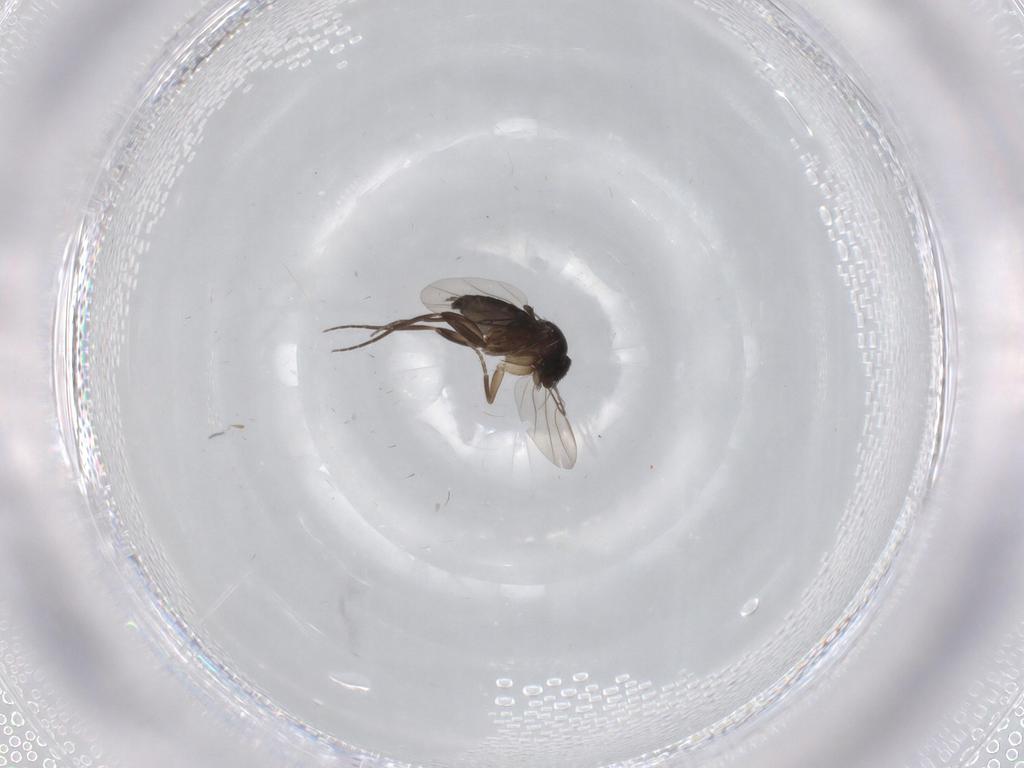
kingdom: Animalia
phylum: Arthropoda
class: Insecta
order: Diptera
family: Phoridae
